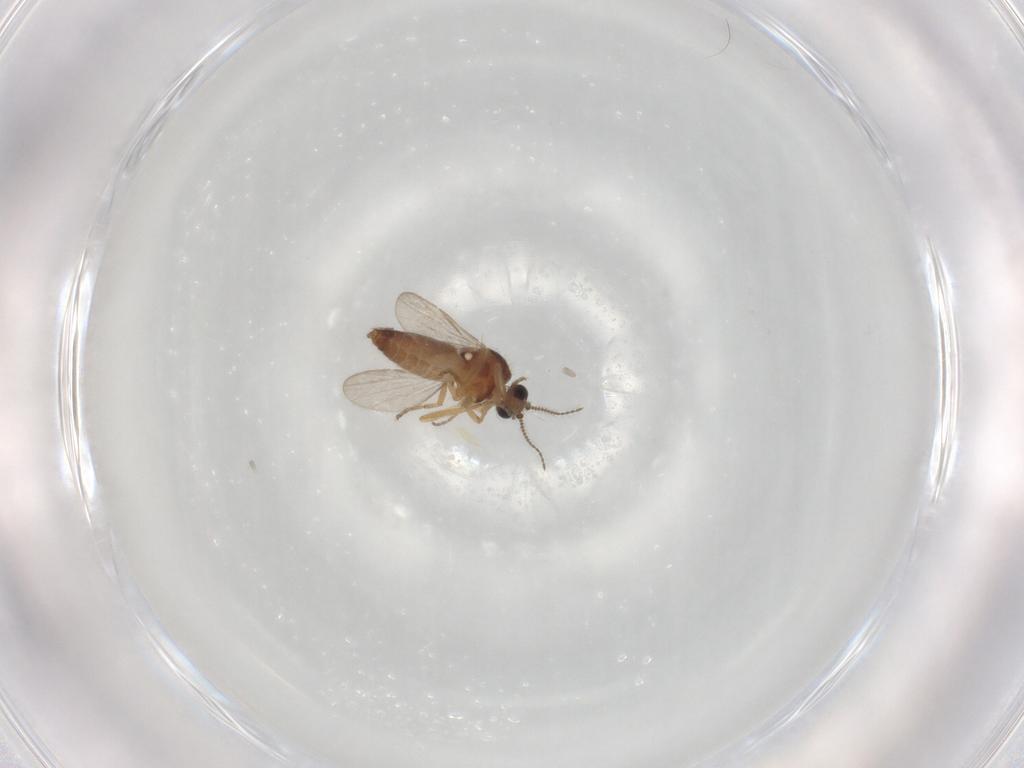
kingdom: Animalia
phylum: Arthropoda
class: Insecta
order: Diptera
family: Ceratopogonidae
